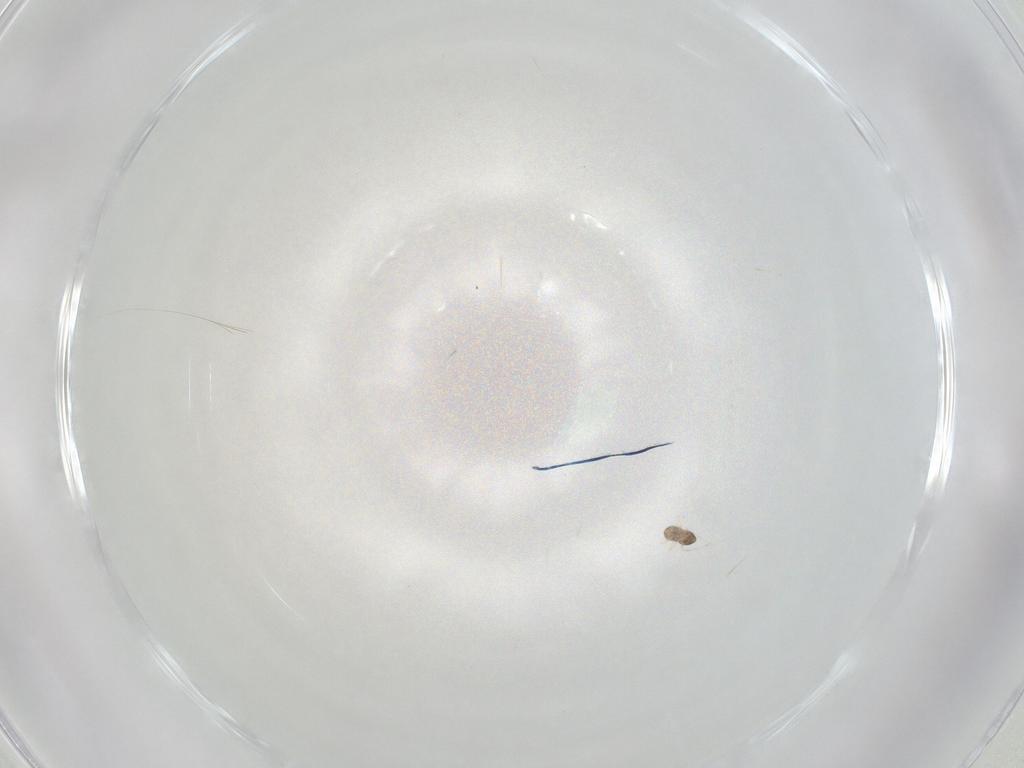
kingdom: Animalia
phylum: Arthropoda
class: Insecta
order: Hymenoptera
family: Mymaridae
